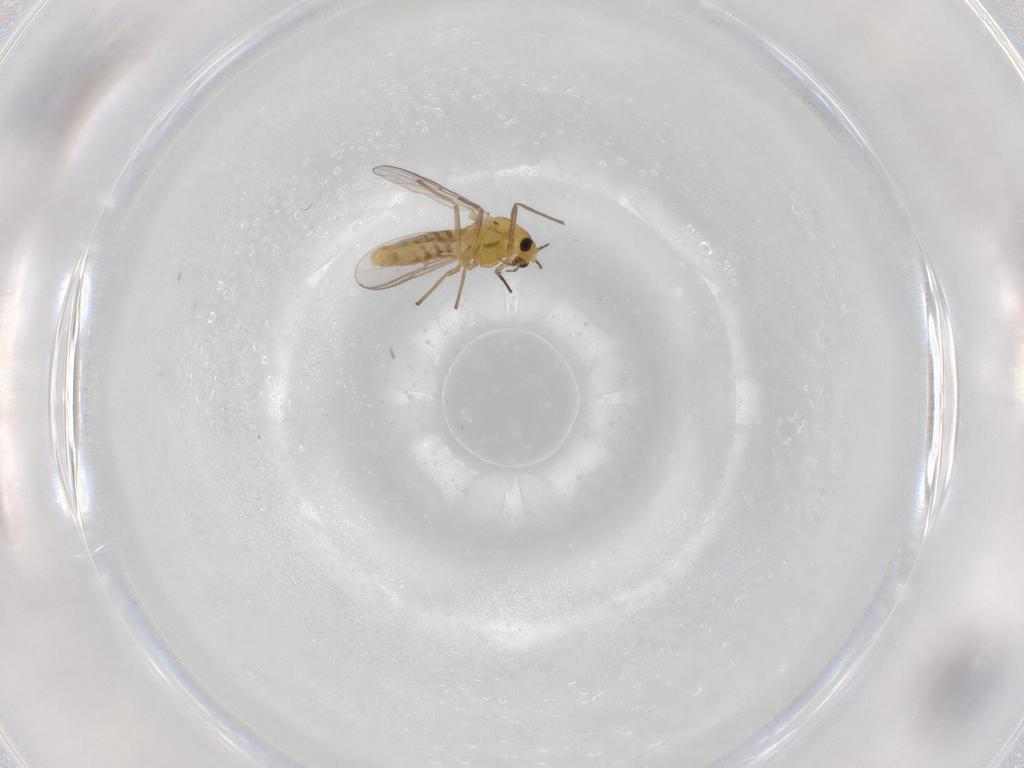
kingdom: Animalia
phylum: Arthropoda
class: Insecta
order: Diptera
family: Chironomidae
